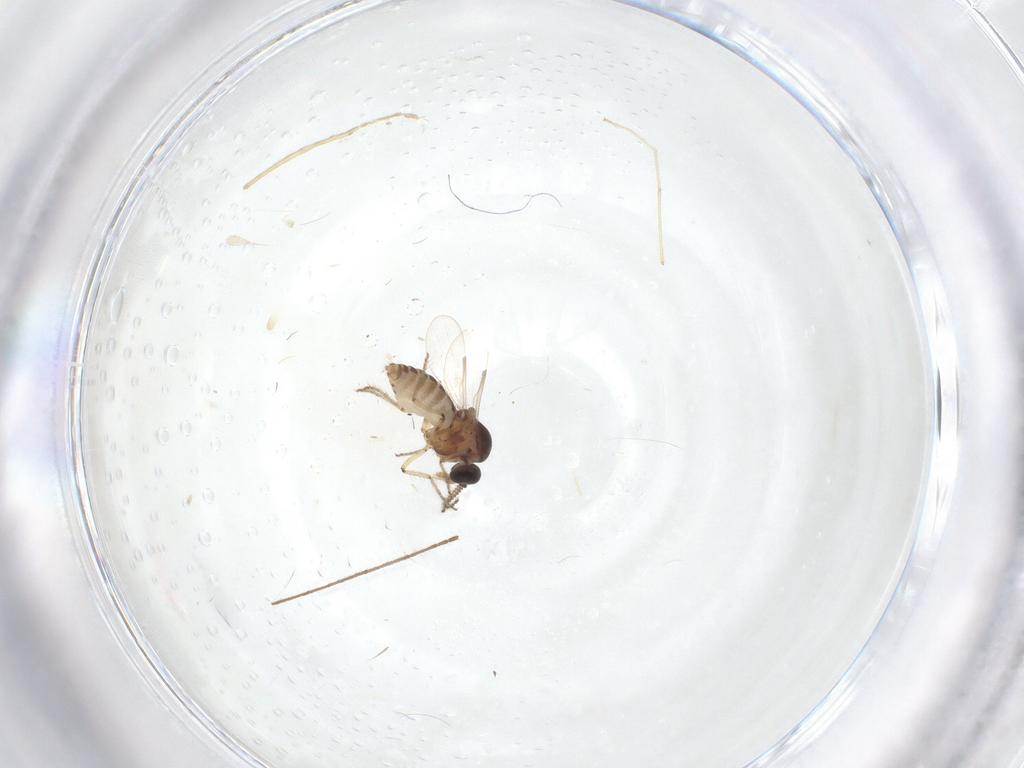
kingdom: Animalia
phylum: Arthropoda
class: Insecta
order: Diptera
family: Ceratopogonidae
